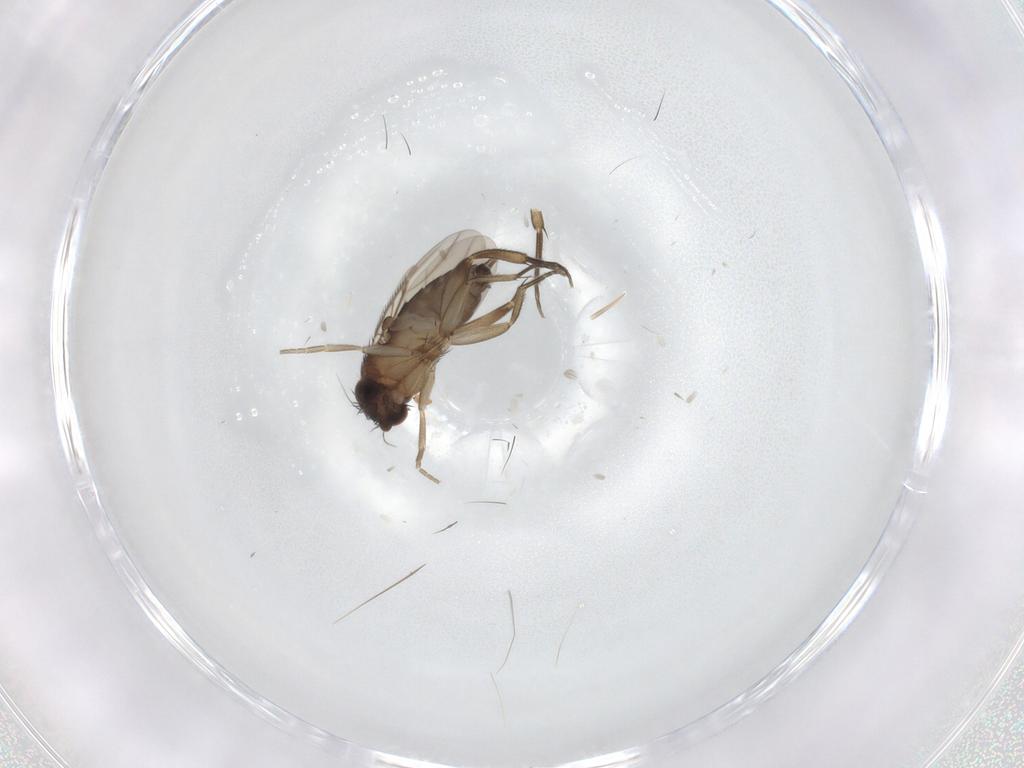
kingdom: Animalia
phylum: Arthropoda
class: Insecta
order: Diptera
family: Phoridae
